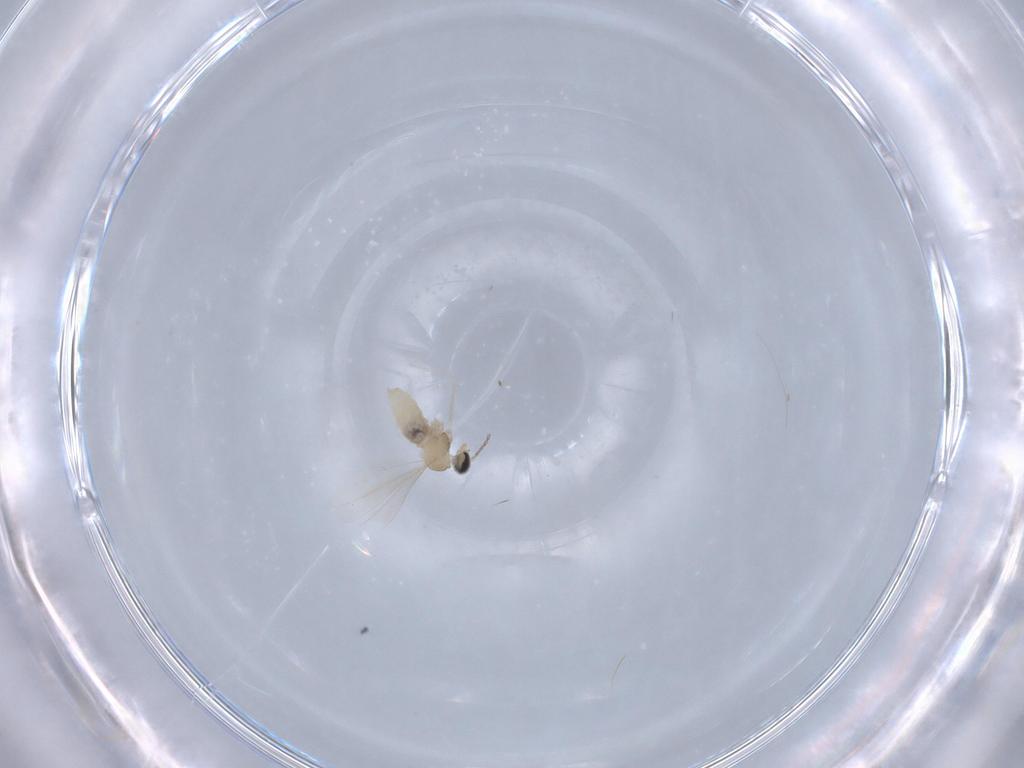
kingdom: Animalia
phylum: Arthropoda
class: Insecta
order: Diptera
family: Cecidomyiidae
